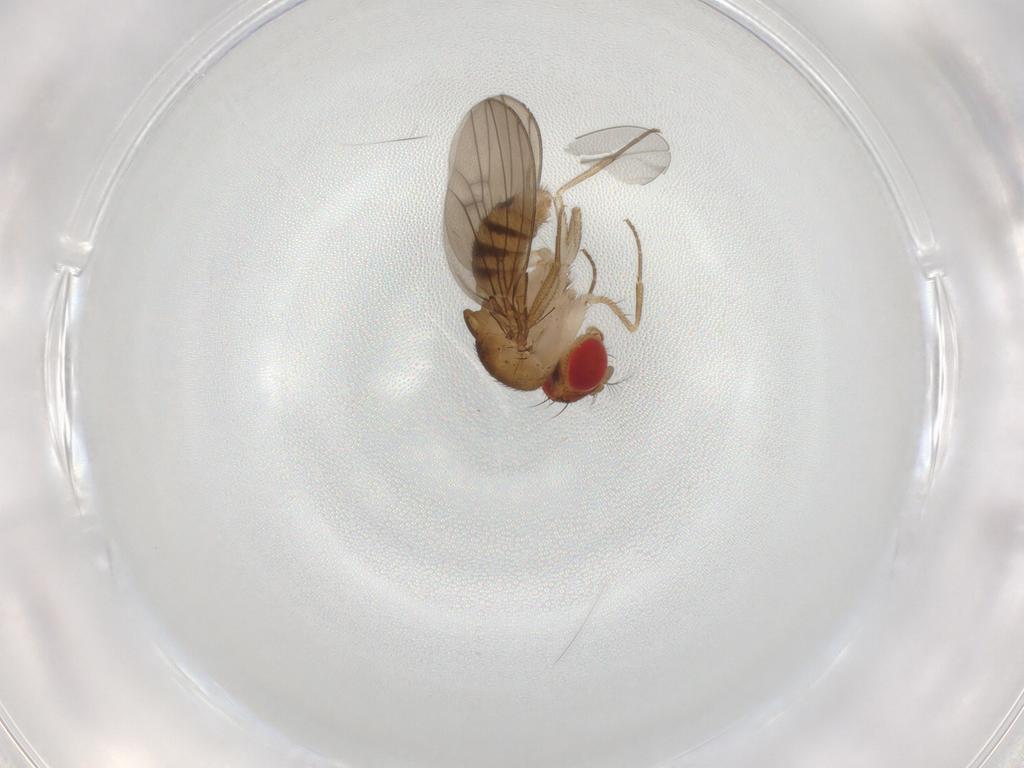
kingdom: Animalia
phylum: Arthropoda
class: Insecta
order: Diptera
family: Drosophilidae
